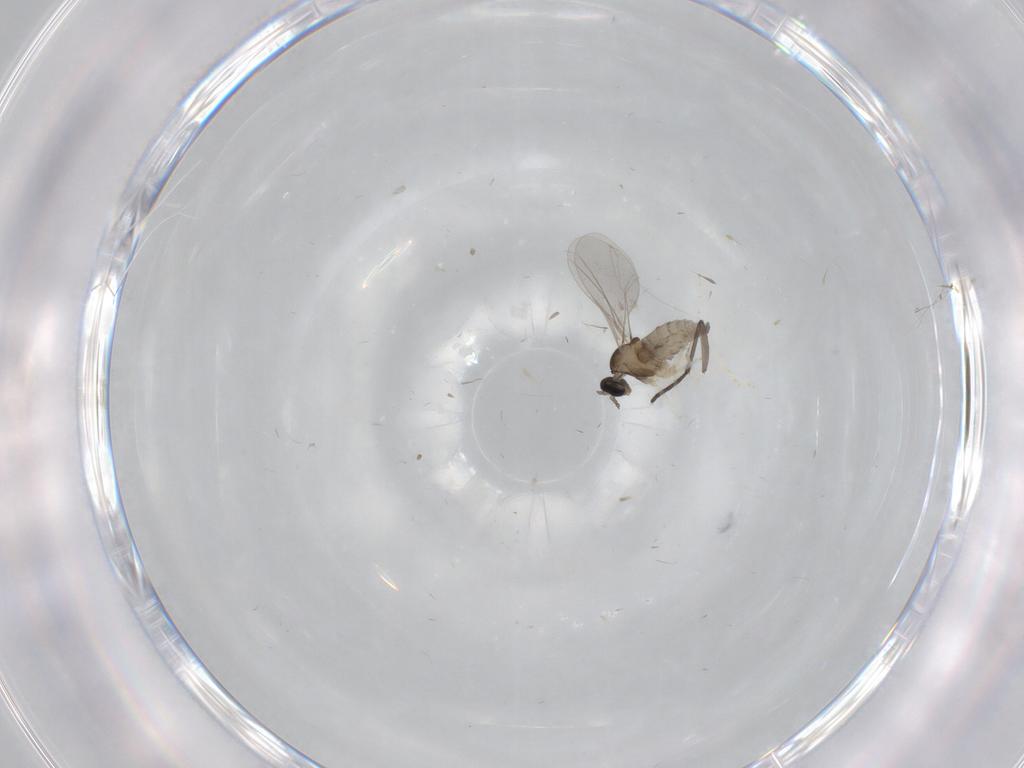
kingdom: Animalia
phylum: Arthropoda
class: Insecta
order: Diptera
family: Cecidomyiidae
